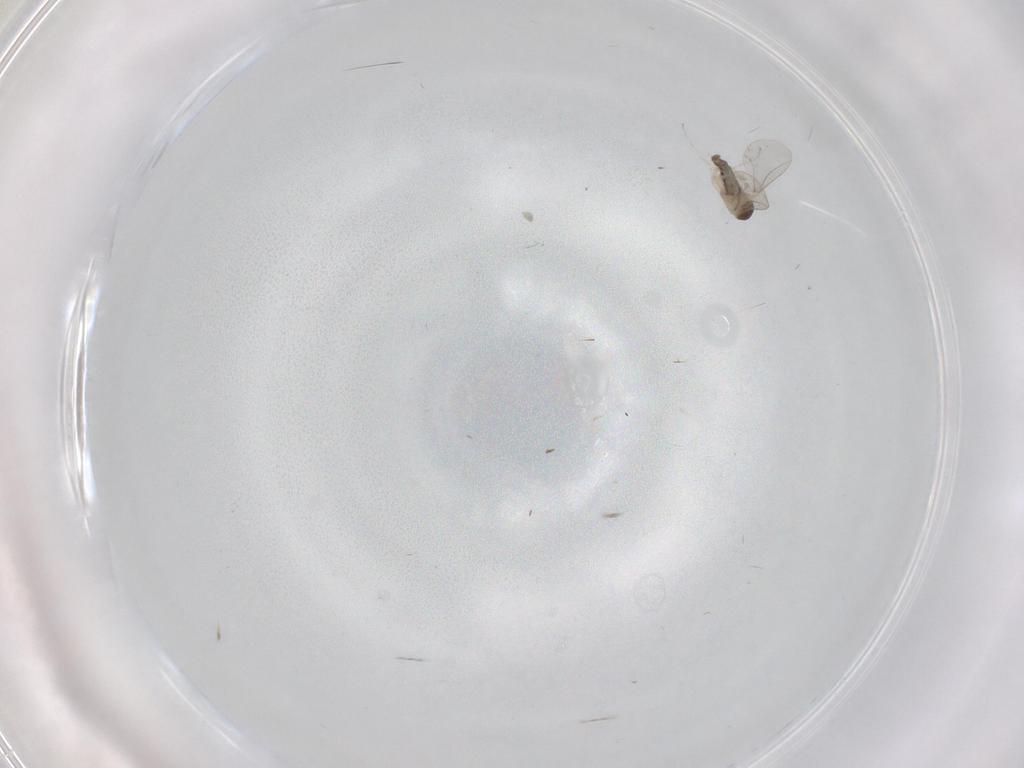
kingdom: Animalia
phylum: Arthropoda
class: Insecta
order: Diptera
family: Cecidomyiidae
